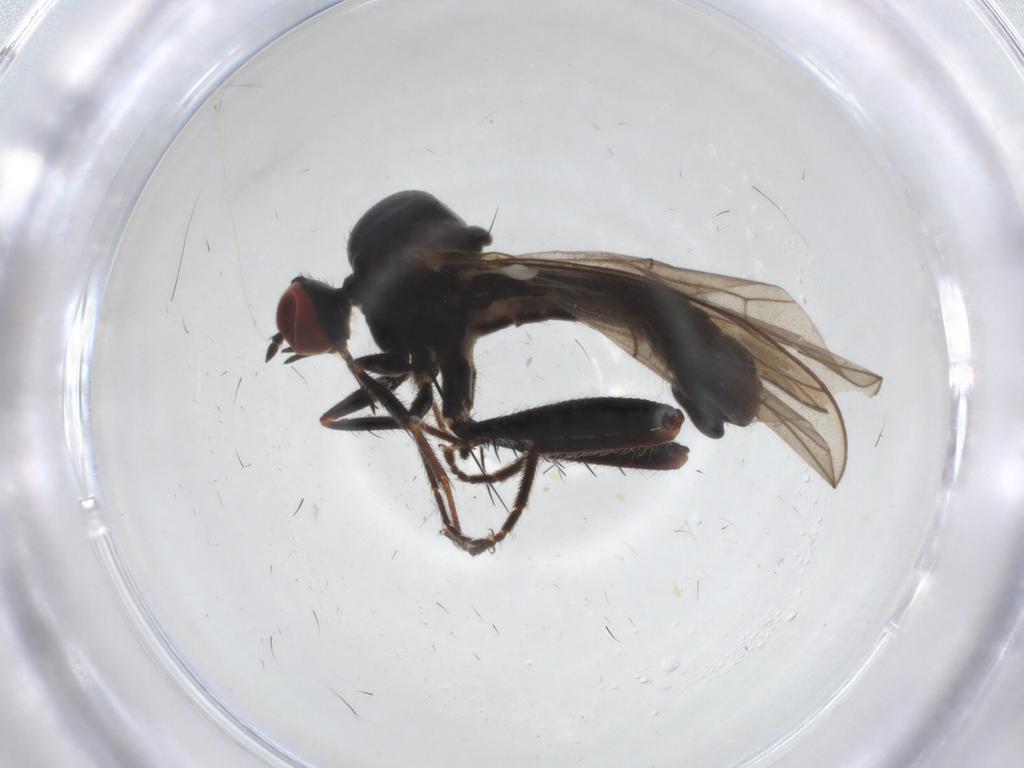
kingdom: Animalia
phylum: Arthropoda
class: Insecta
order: Diptera
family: Hybotidae
